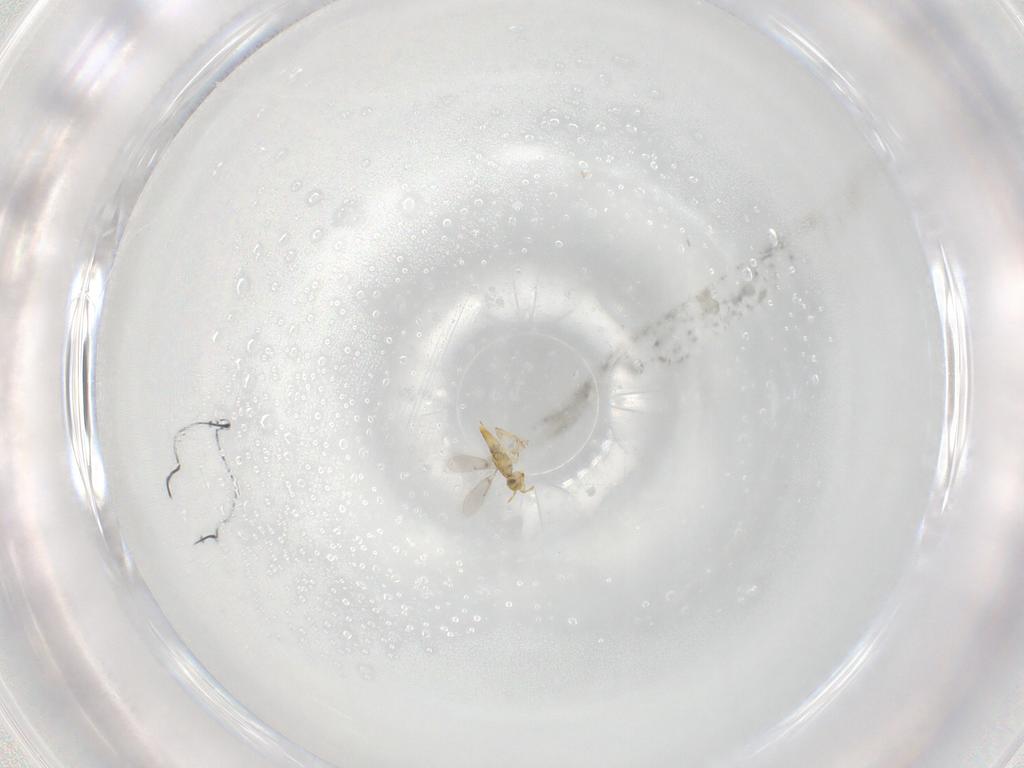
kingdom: Animalia
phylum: Arthropoda
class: Insecta
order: Hymenoptera
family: Aphelinidae
